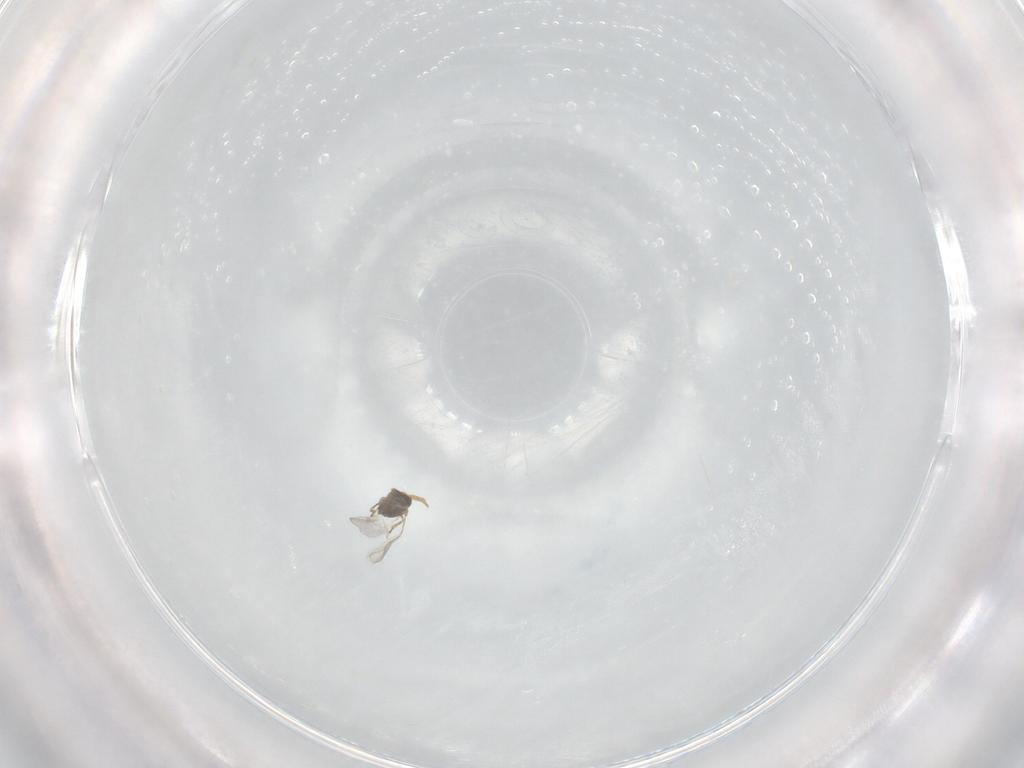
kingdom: Animalia
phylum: Arthropoda
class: Insecta
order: Hymenoptera
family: Encyrtidae
